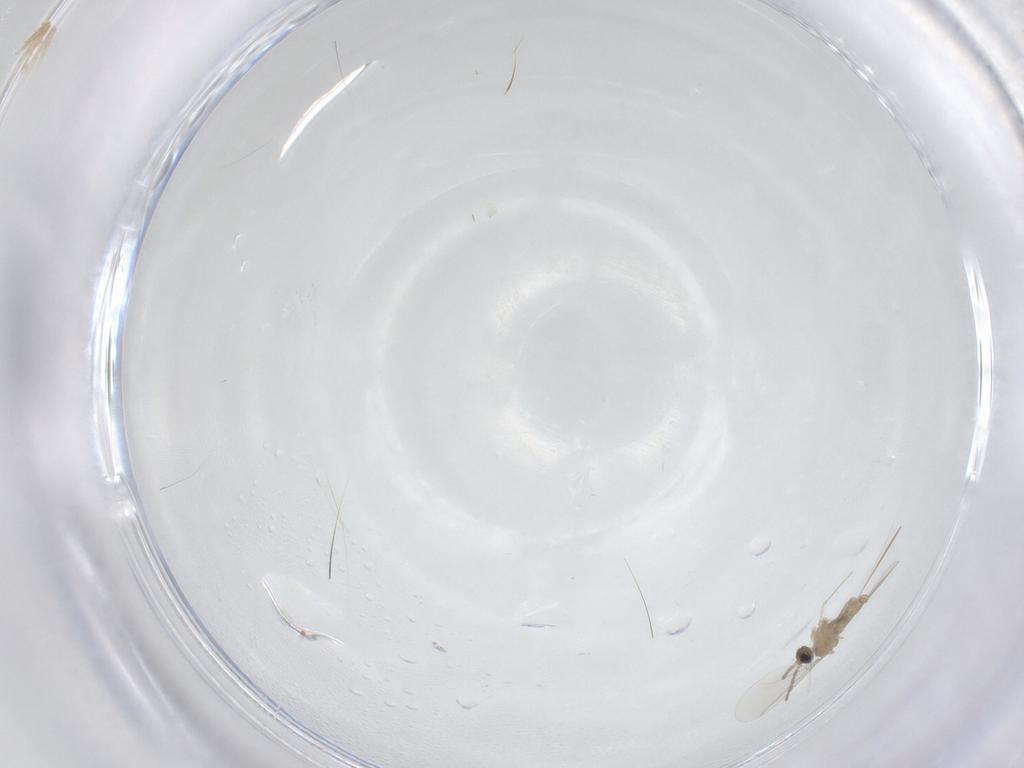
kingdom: Animalia
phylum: Arthropoda
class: Insecta
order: Diptera
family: Cecidomyiidae
